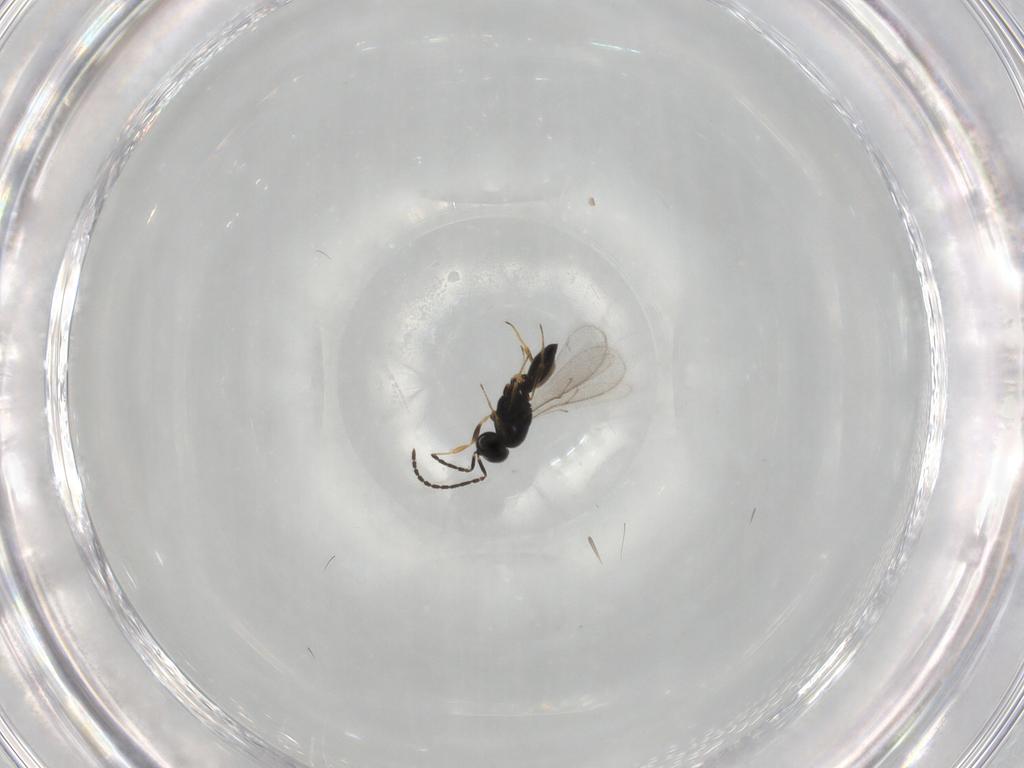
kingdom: Animalia
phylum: Arthropoda
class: Insecta
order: Hymenoptera
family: Scelionidae
